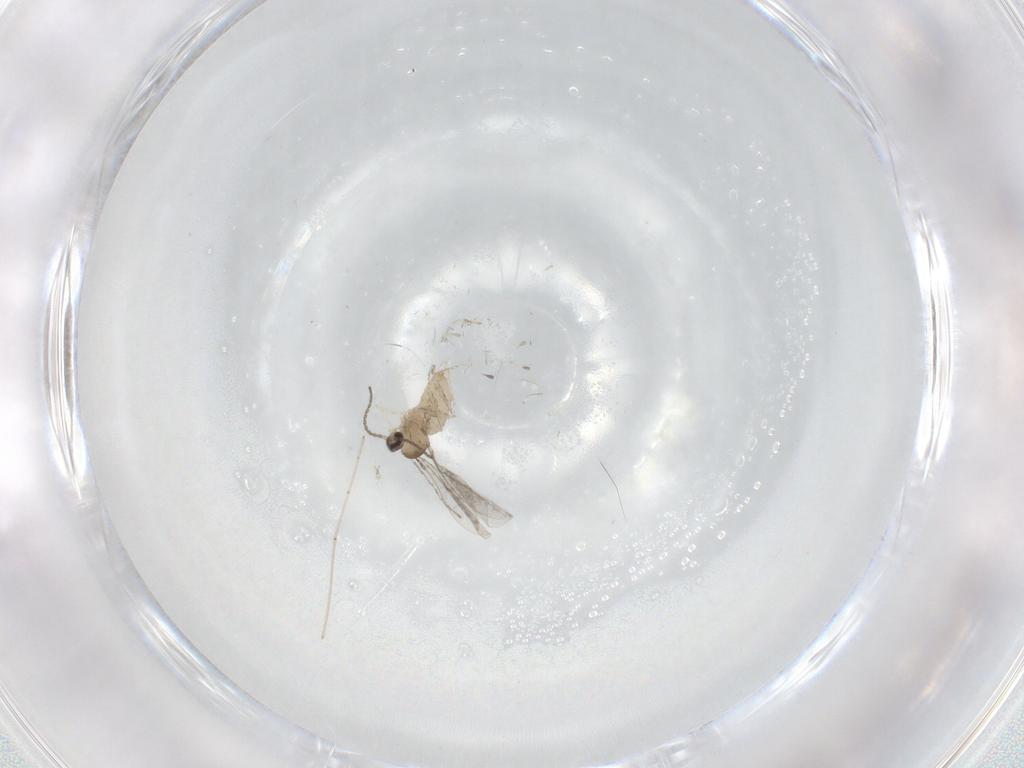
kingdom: Animalia
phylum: Arthropoda
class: Insecta
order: Diptera
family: Cecidomyiidae
